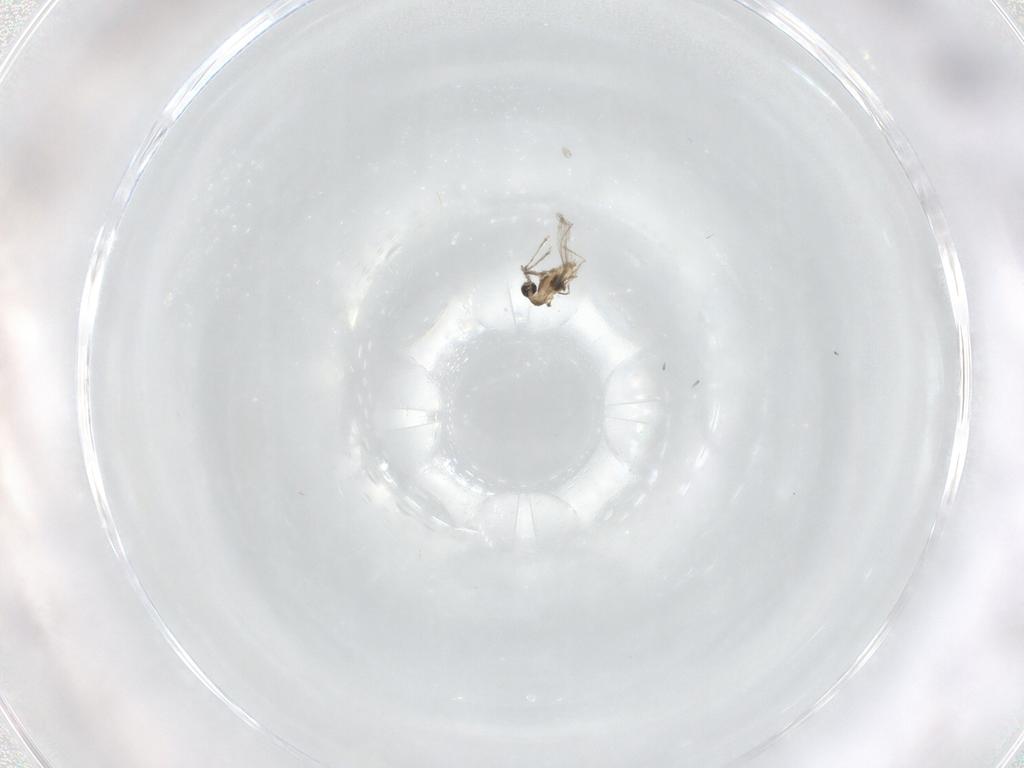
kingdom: Animalia
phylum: Arthropoda
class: Insecta
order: Diptera
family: Cecidomyiidae
